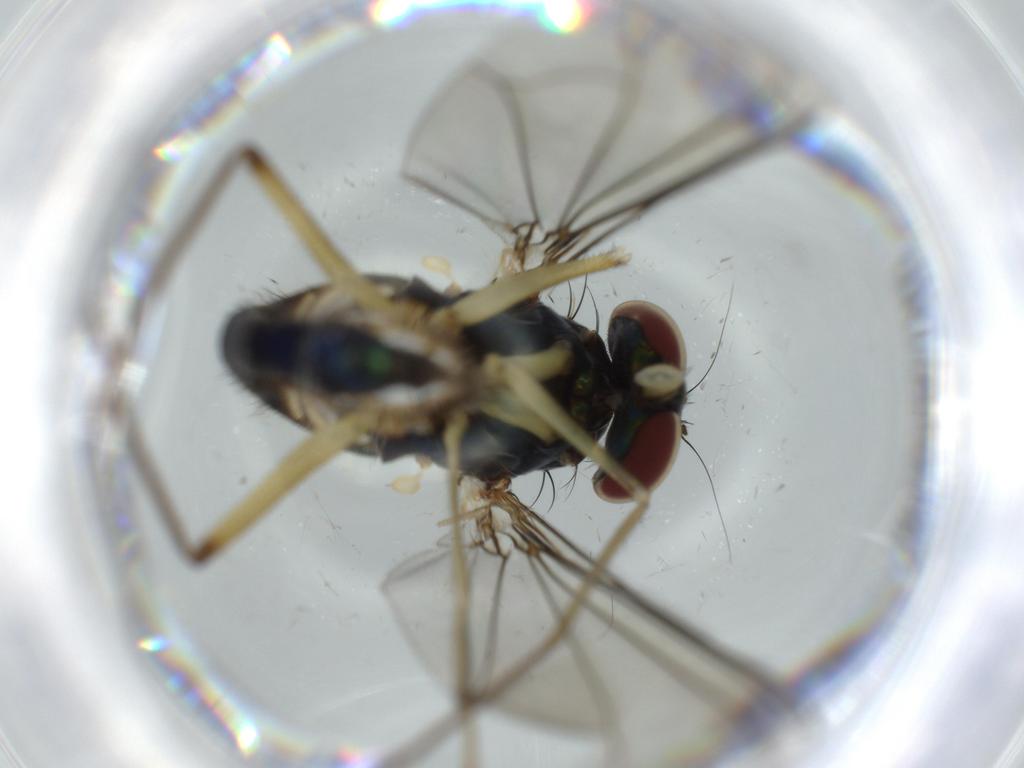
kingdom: Animalia
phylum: Arthropoda
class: Insecta
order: Diptera
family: Dolichopodidae
